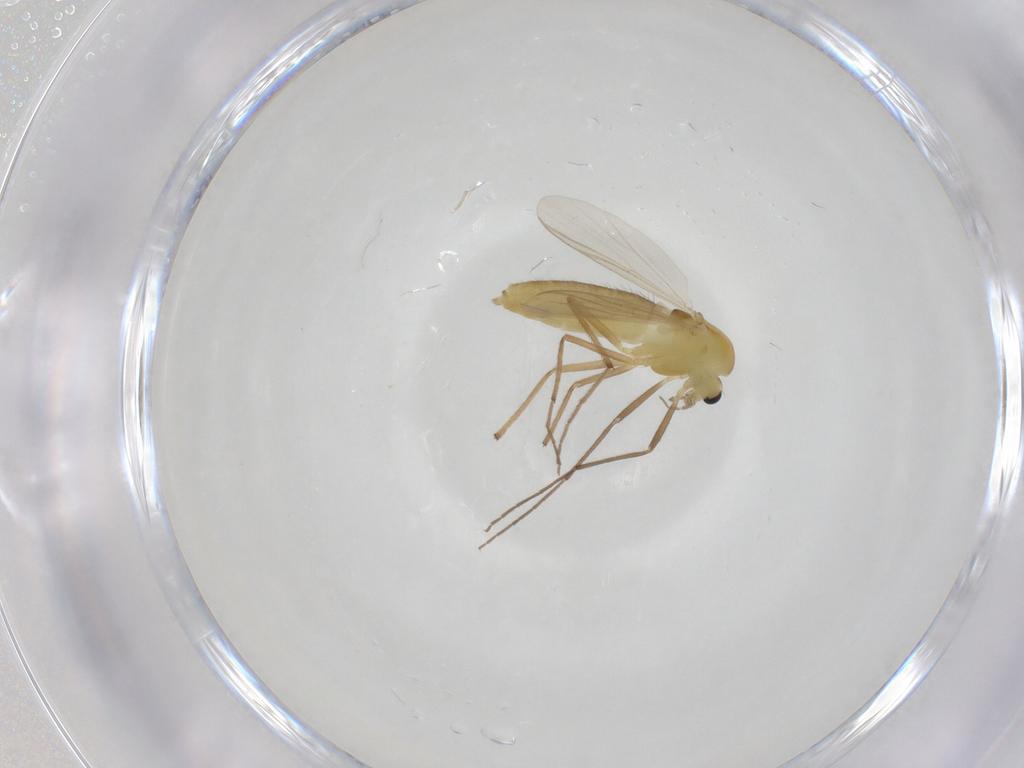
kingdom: Animalia
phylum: Arthropoda
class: Insecta
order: Diptera
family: Chironomidae
